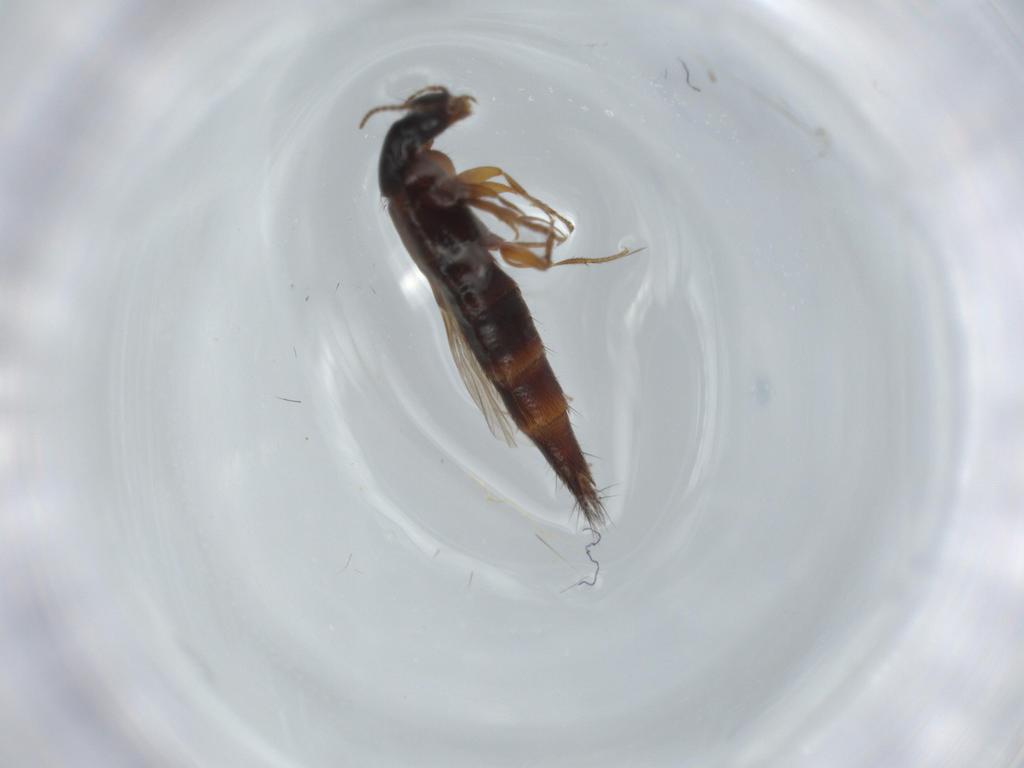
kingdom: Animalia
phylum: Arthropoda
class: Insecta
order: Coleoptera
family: Staphylinidae
